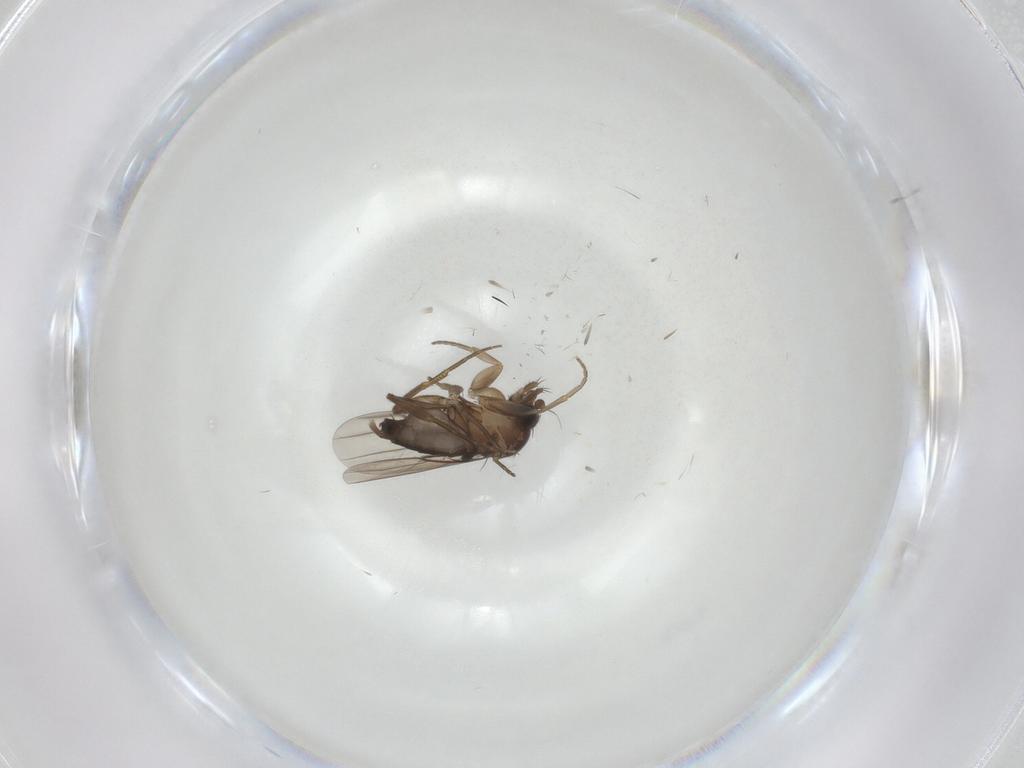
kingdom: Animalia
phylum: Arthropoda
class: Insecta
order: Diptera
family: Phoridae
